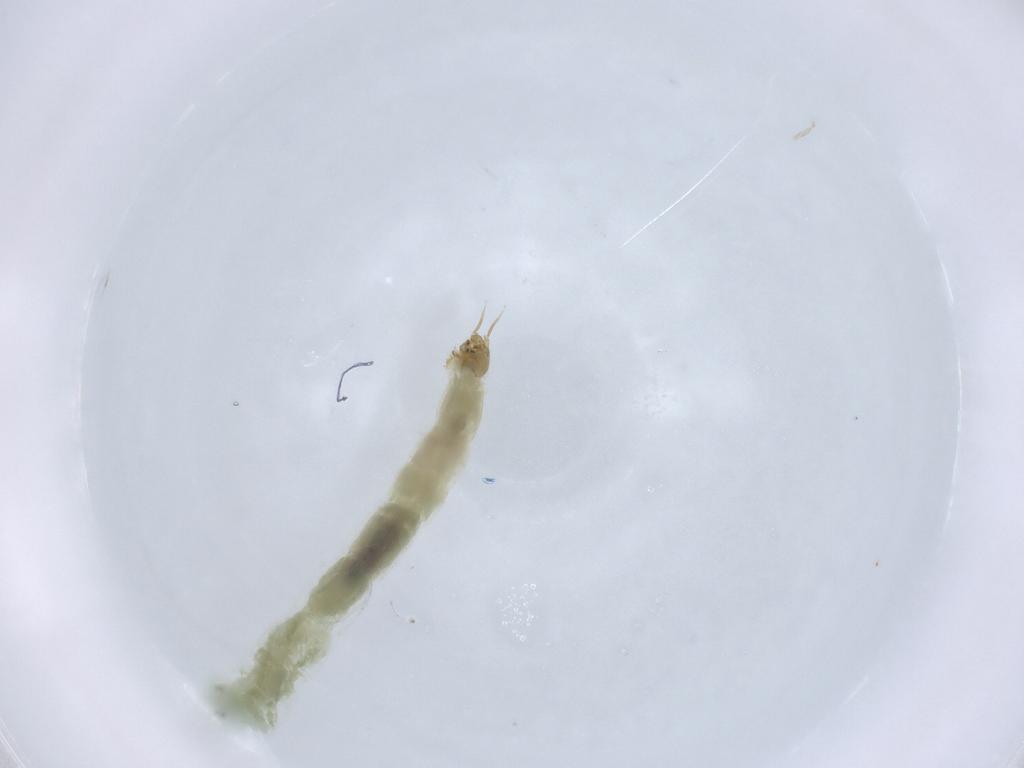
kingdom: Animalia
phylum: Arthropoda
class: Insecta
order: Diptera
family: Chironomidae
